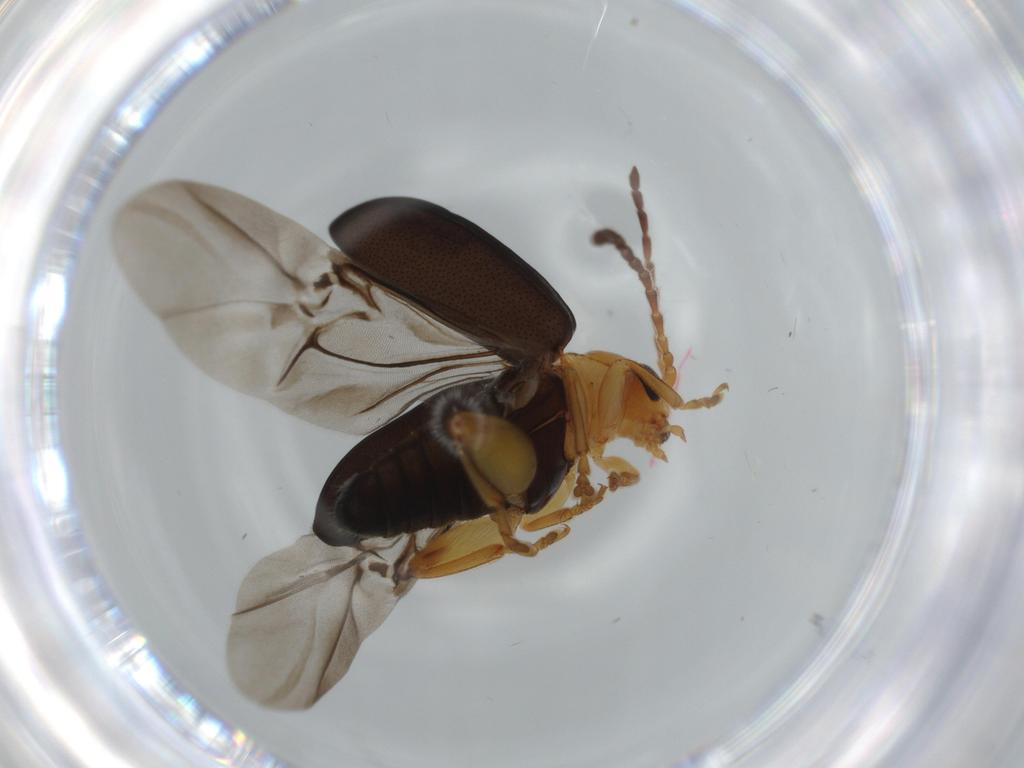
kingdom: Animalia
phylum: Arthropoda
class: Insecta
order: Coleoptera
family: Chrysomelidae
